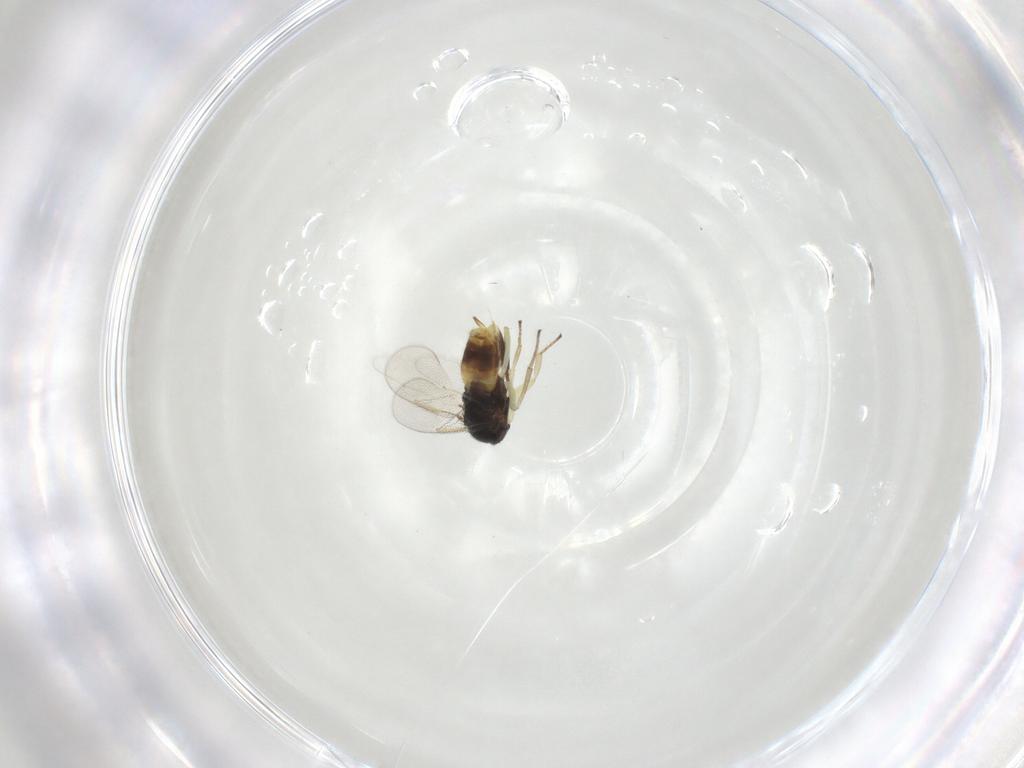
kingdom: Animalia
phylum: Arthropoda
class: Insecta
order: Hymenoptera
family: Aphelinidae
